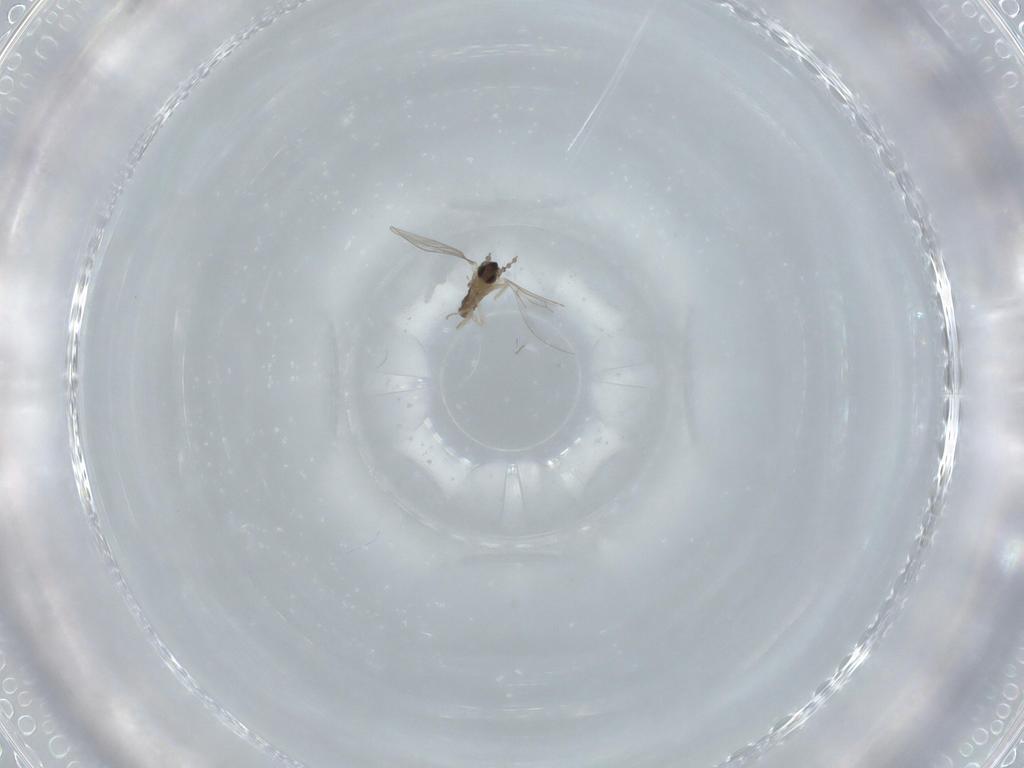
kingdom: Animalia
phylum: Arthropoda
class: Insecta
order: Diptera
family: Cecidomyiidae
